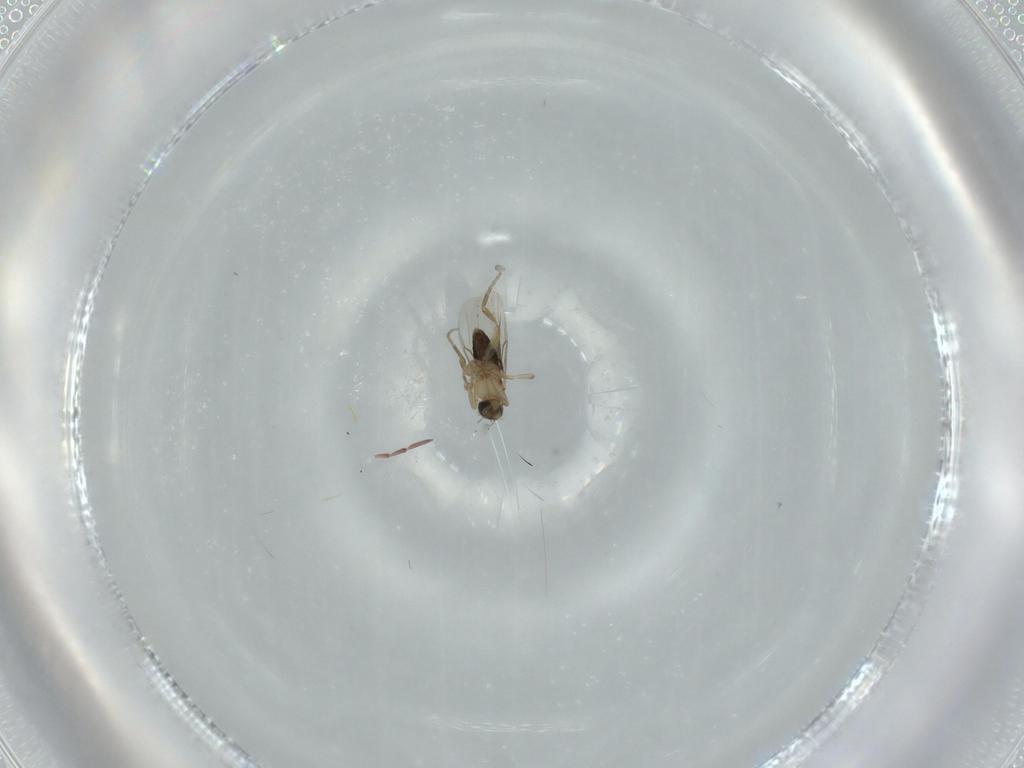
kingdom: Animalia
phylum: Arthropoda
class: Insecta
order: Diptera
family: Phoridae
